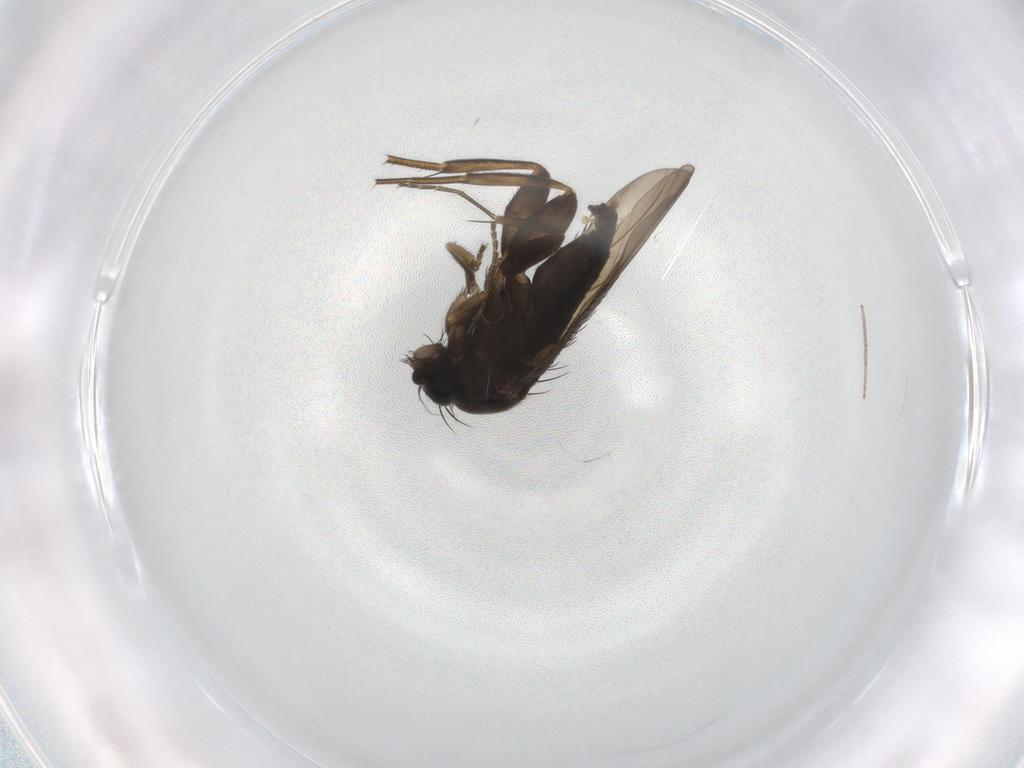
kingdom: Animalia
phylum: Arthropoda
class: Insecta
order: Diptera
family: Phoridae
